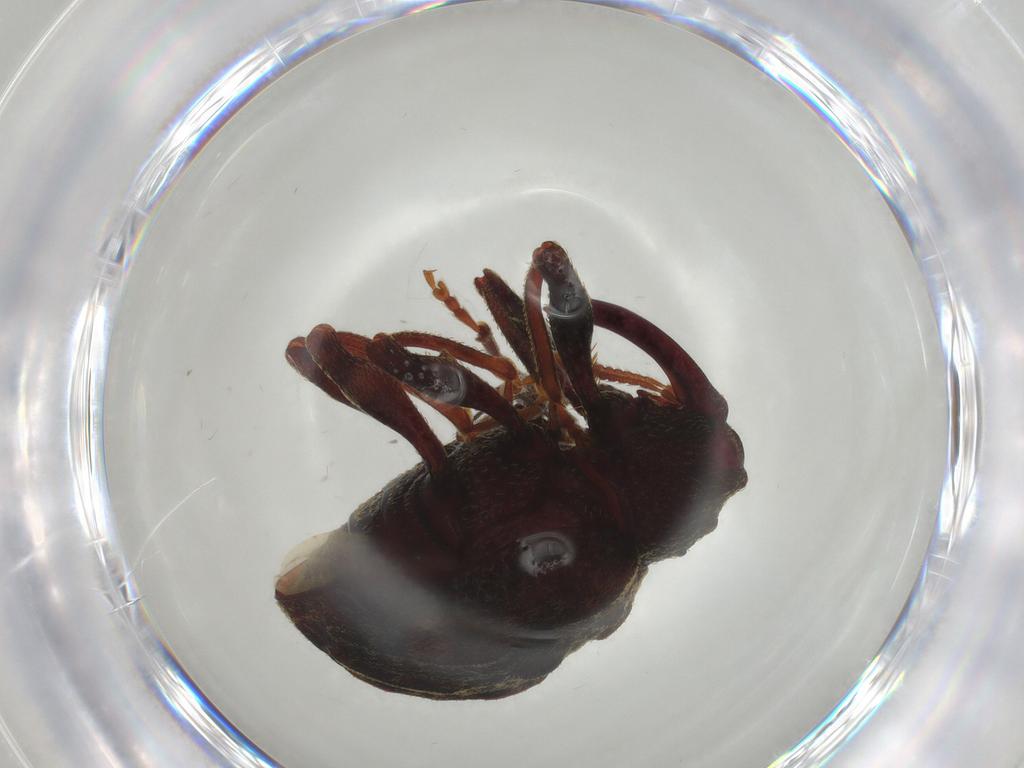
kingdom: Animalia
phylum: Arthropoda
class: Insecta
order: Coleoptera
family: Curculionidae
